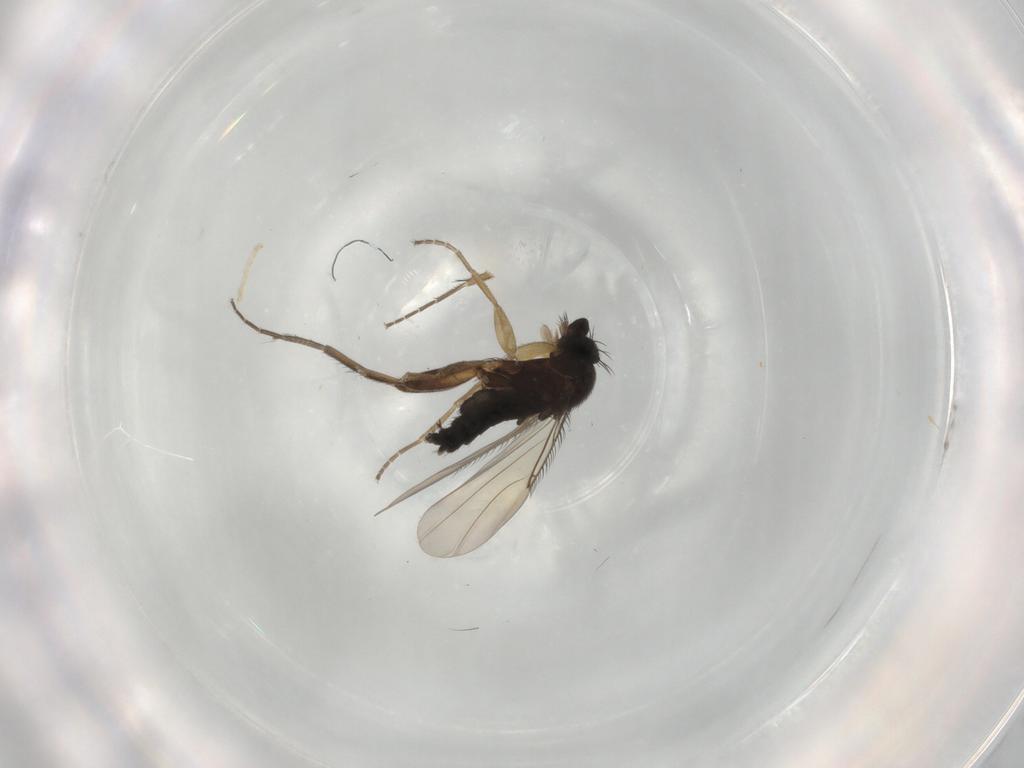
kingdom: Animalia
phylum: Arthropoda
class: Insecta
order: Diptera
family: Phoridae
